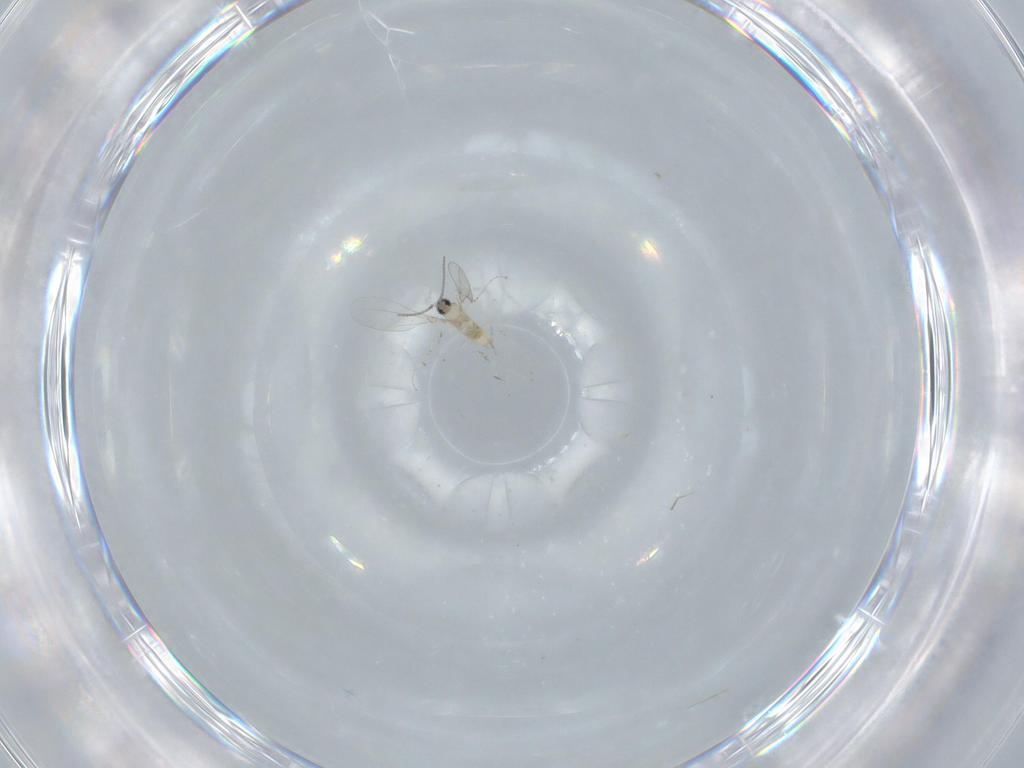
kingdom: Animalia
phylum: Arthropoda
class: Insecta
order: Diptera
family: Cecidomyiidae
